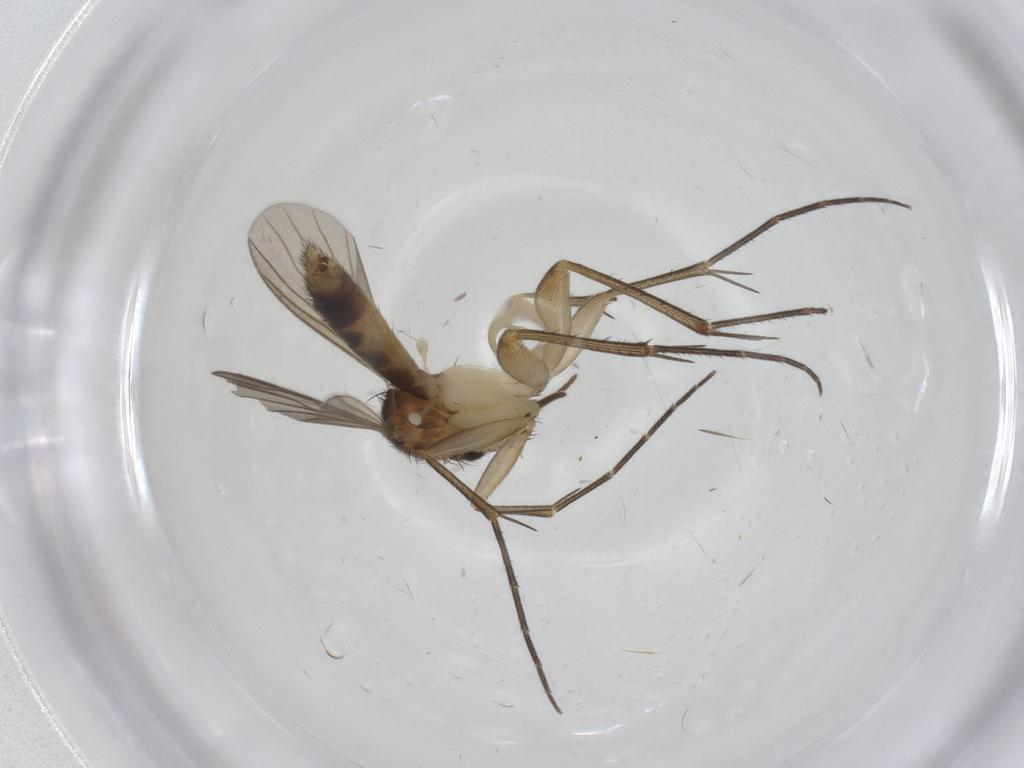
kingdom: Animalia
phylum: Arthropoda
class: Insecta
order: Diptera
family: Mycetophilidae
